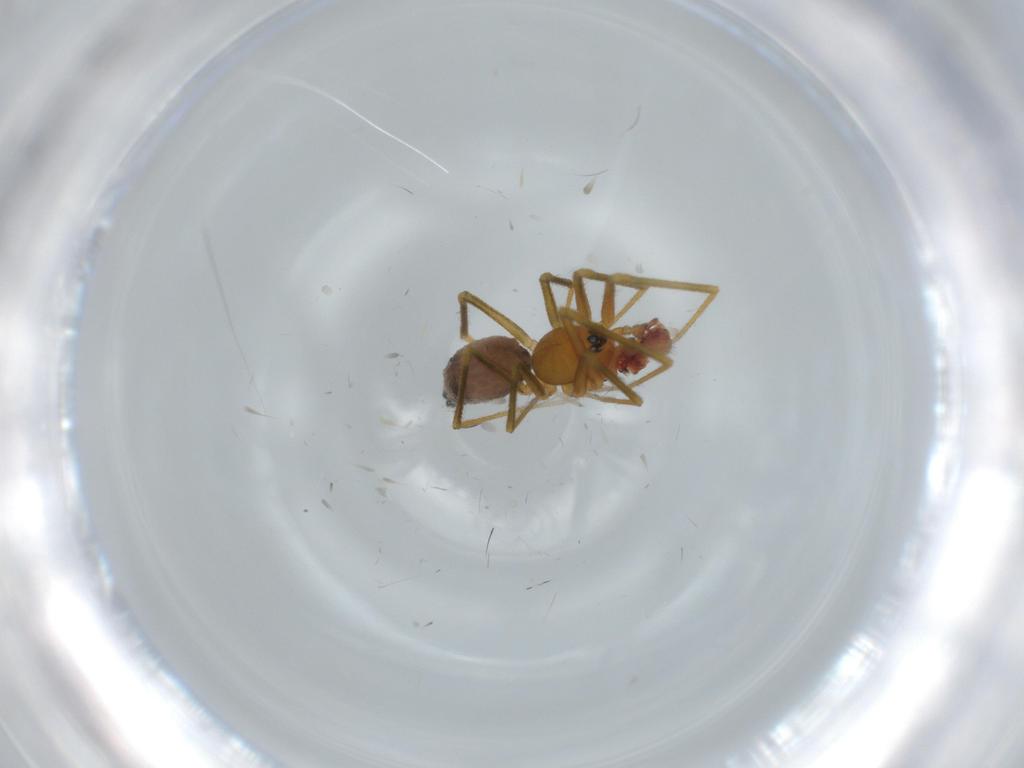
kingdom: Animalia
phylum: Arthropoda
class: Arachnida
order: Araneae
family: Linyphiidae
